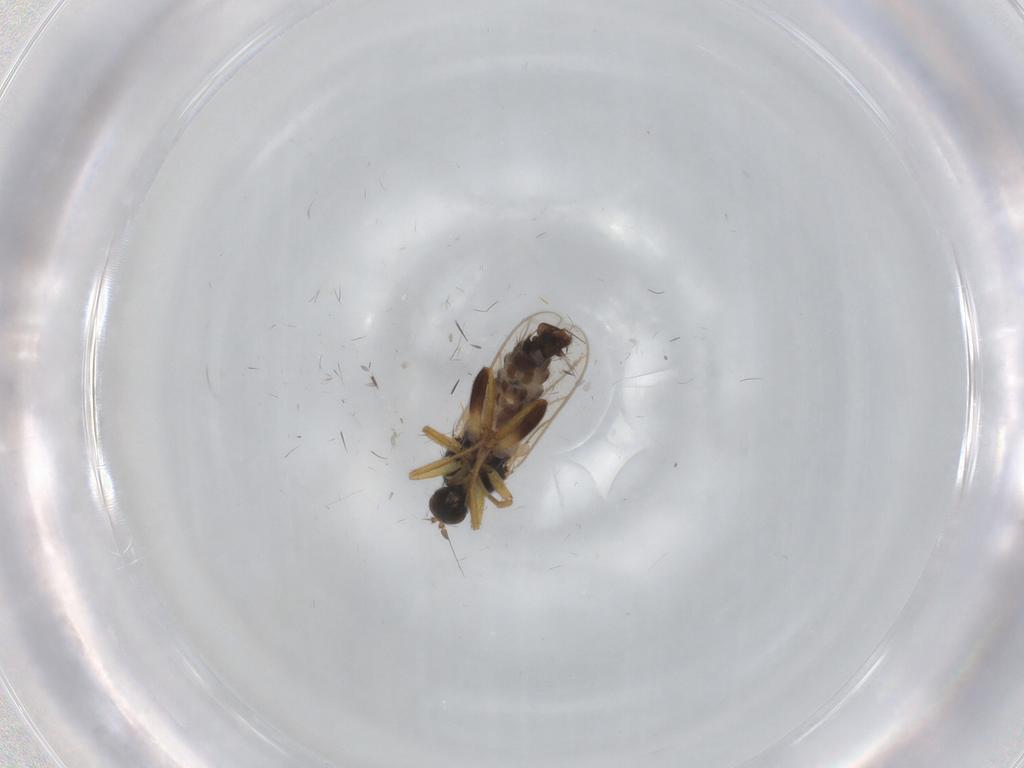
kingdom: Animalia
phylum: Arthropoda
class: Insecta
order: Diptera
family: Hybotidae
